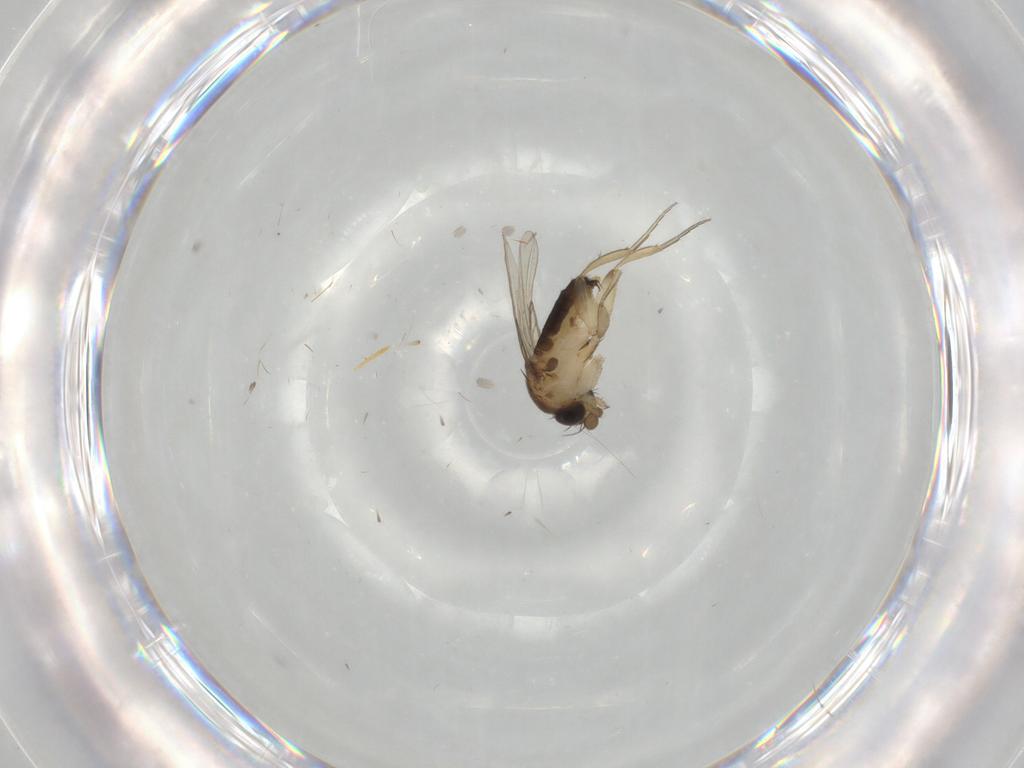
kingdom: Animalia
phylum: Arthropoda
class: Insecta
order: Diptera
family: Phoridae
